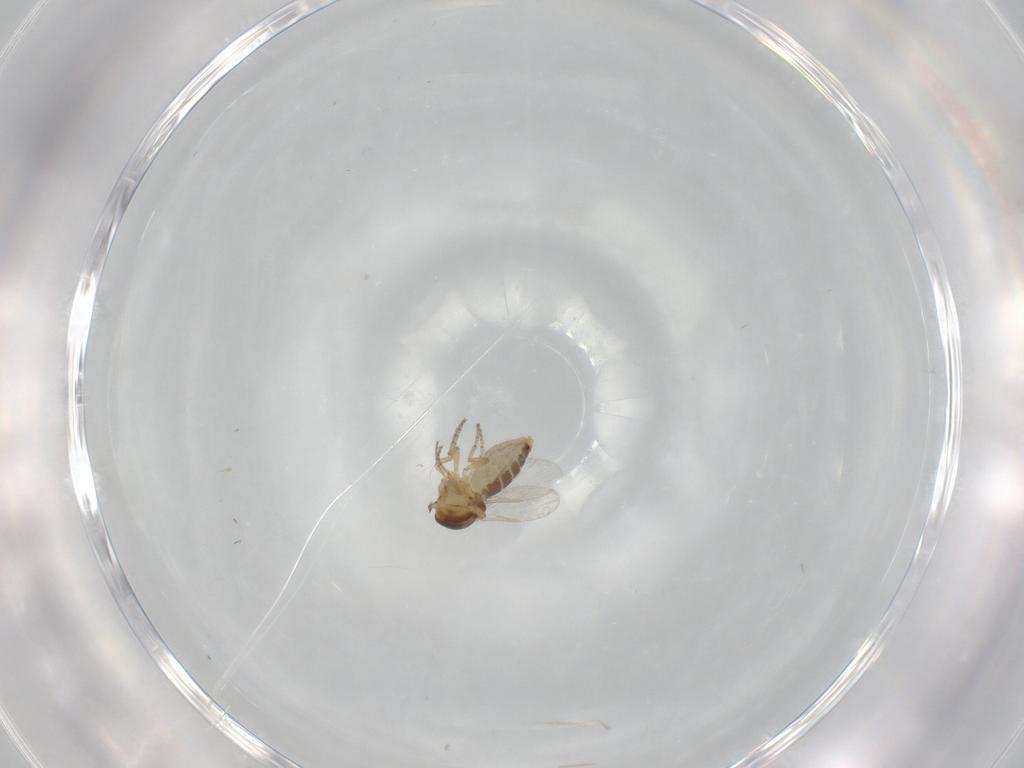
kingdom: Animalia
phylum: Arthropoda
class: Insecta
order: Diptera
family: Ceratopogonidae
